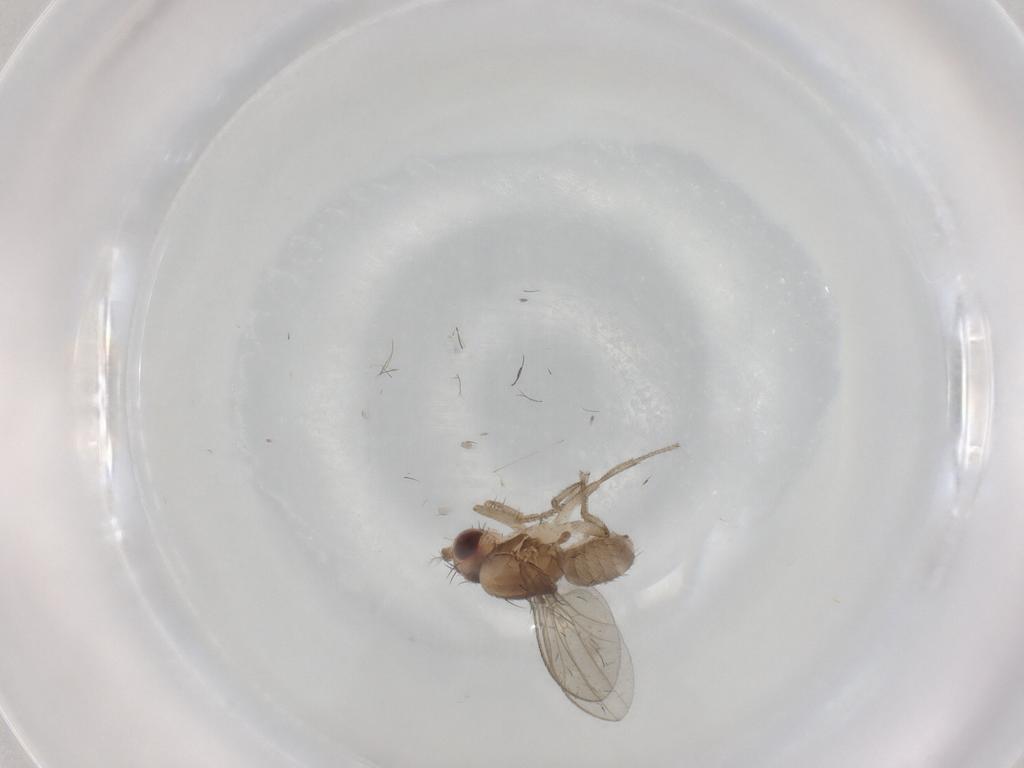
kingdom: Animalia
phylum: Arthropoda
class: Insecta
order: Diptera
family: Drosophilidae
